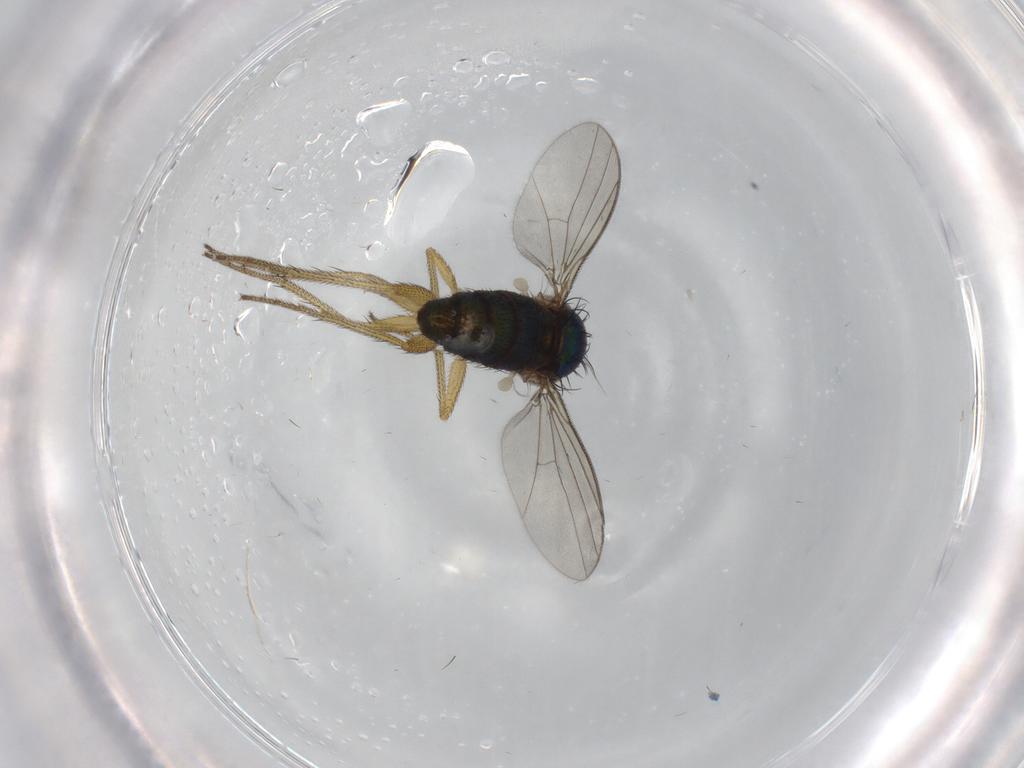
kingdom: Animalia
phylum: Arthropoda
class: Insecta
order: Diptera
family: Dolichopodidae
